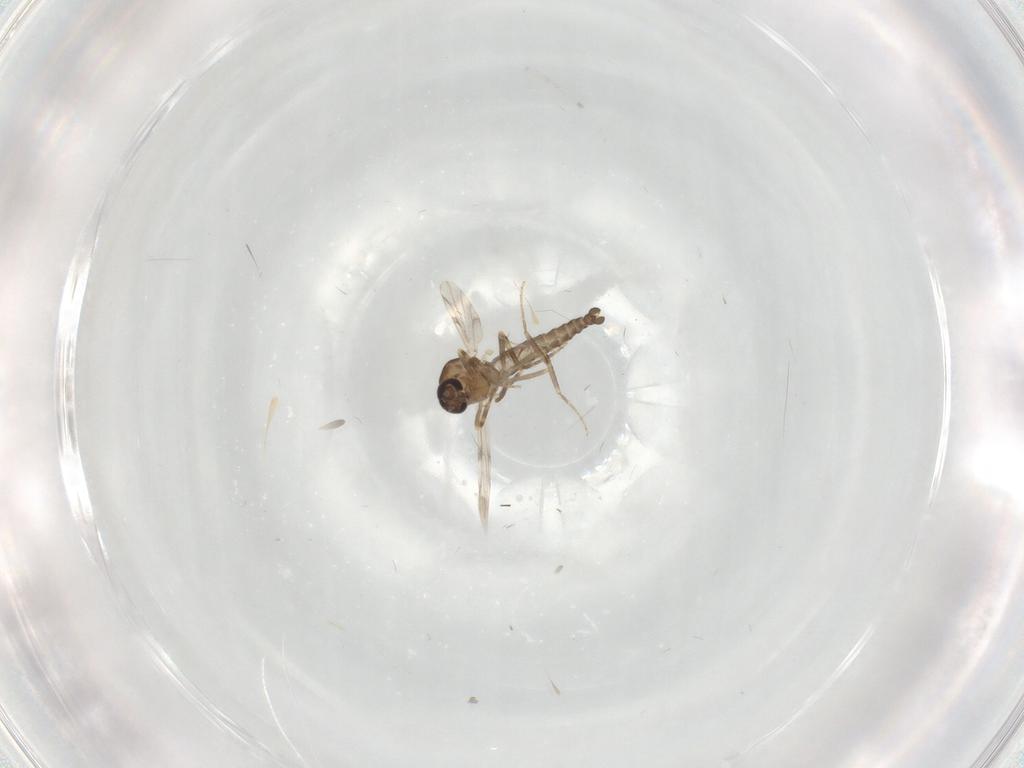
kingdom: Animalia
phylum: Arthropoda
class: Insecta
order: Diptera
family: Ceratopogonidae
